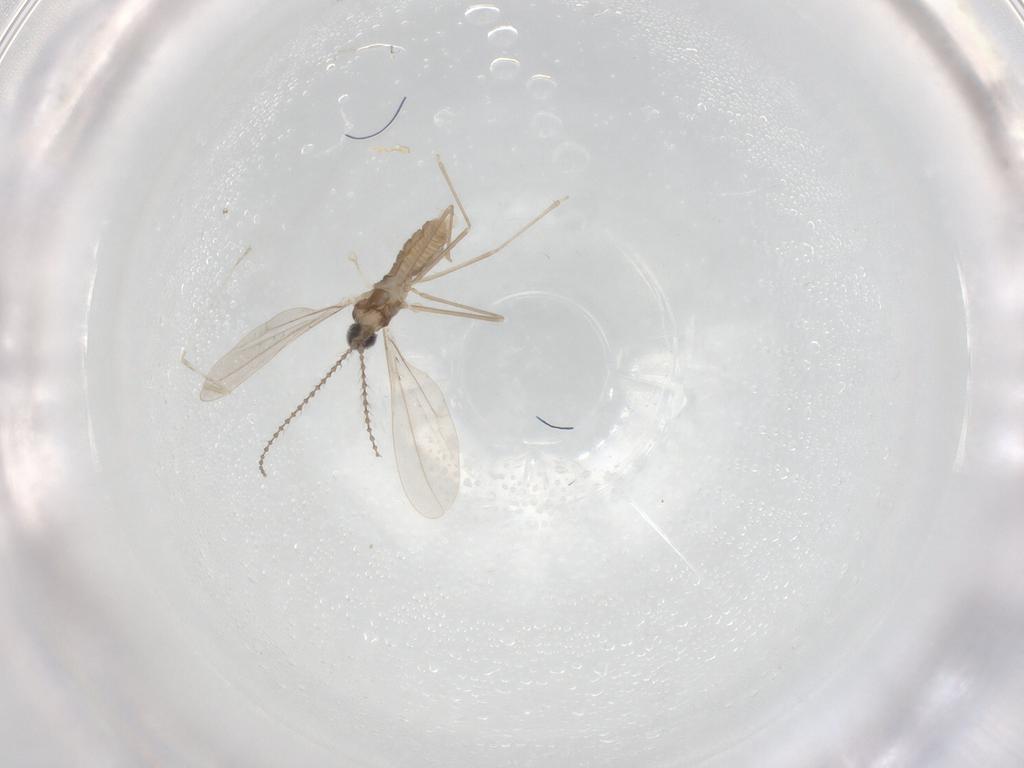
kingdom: Animalia
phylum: Arthropoda
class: Insecta
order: Diptera
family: Cecidomyiidae
